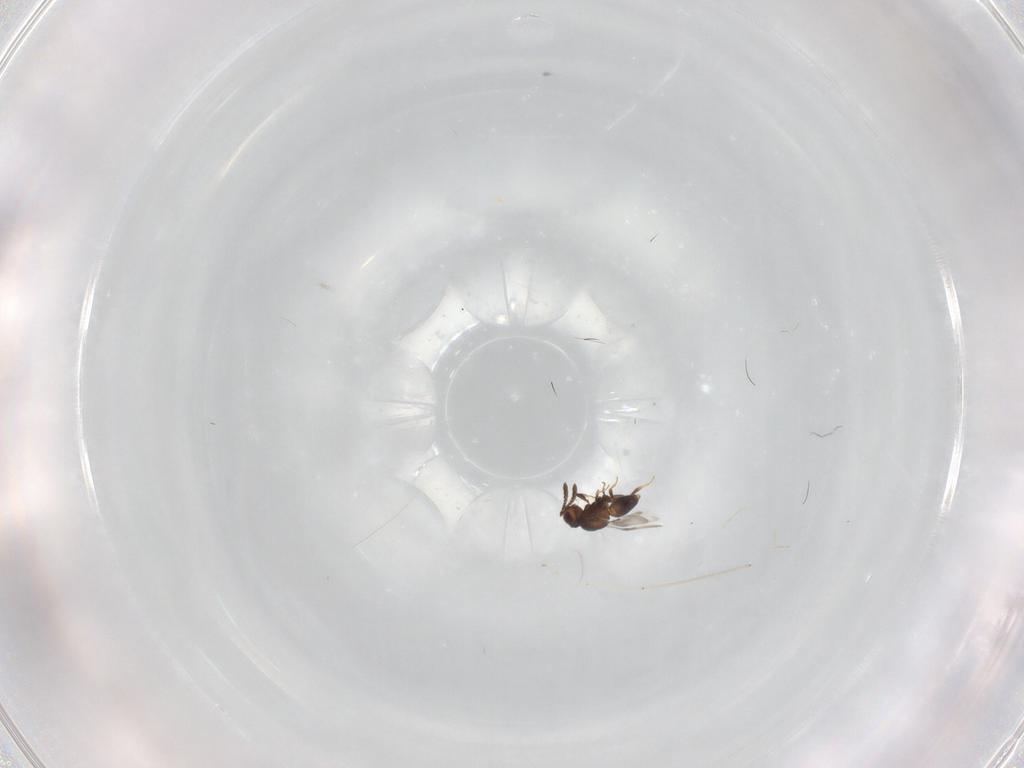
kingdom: Animalia
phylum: Arthropoda
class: Insecta
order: Hymenoptera
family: Ceraphronidae
